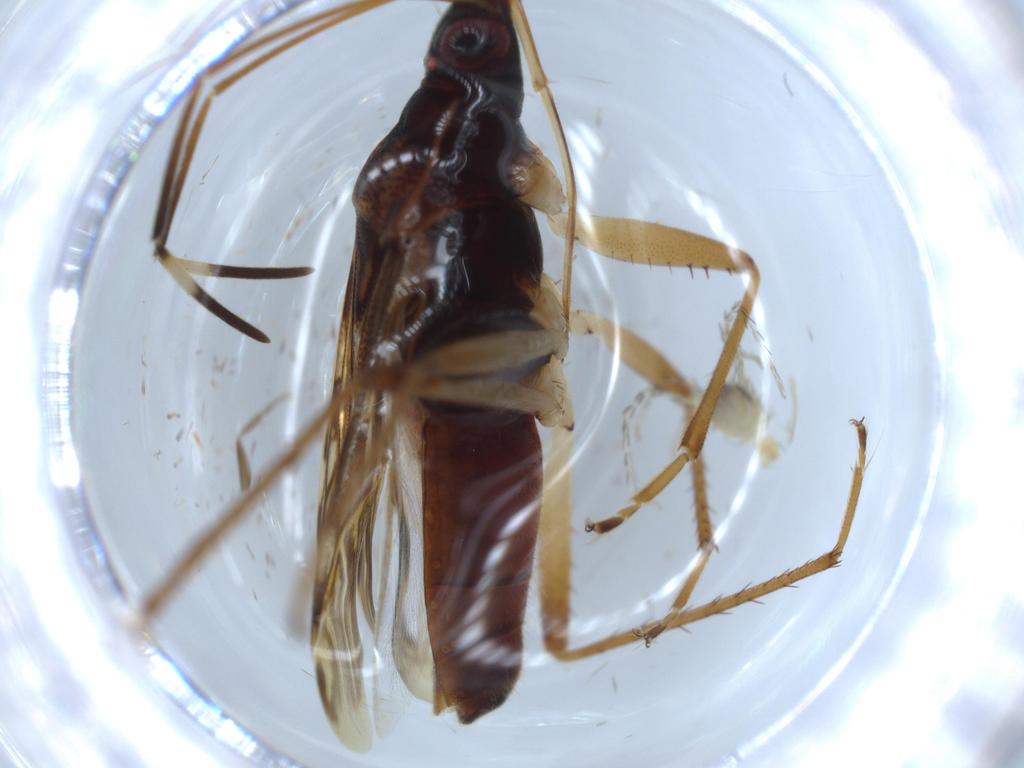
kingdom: Animalia
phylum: Arthropoda
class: Insecta
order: Hemiptera
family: Rhyparochromidae
